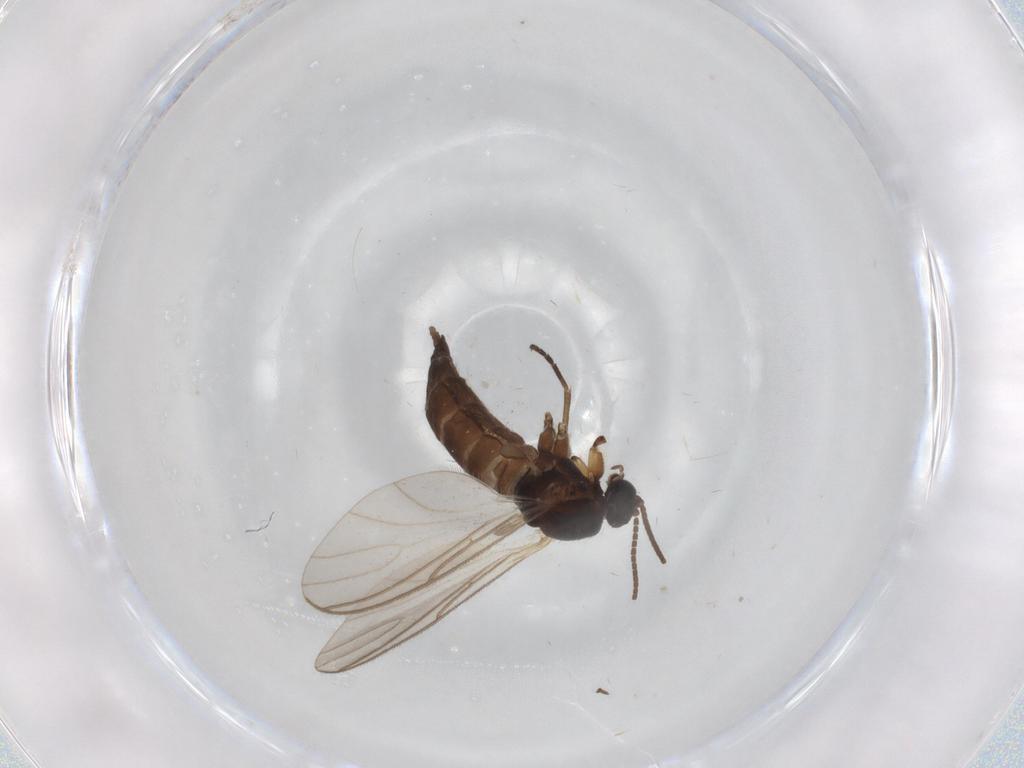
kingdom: Animalia
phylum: Arthropoda
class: Insecta
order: Diptera
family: Sciaridae
